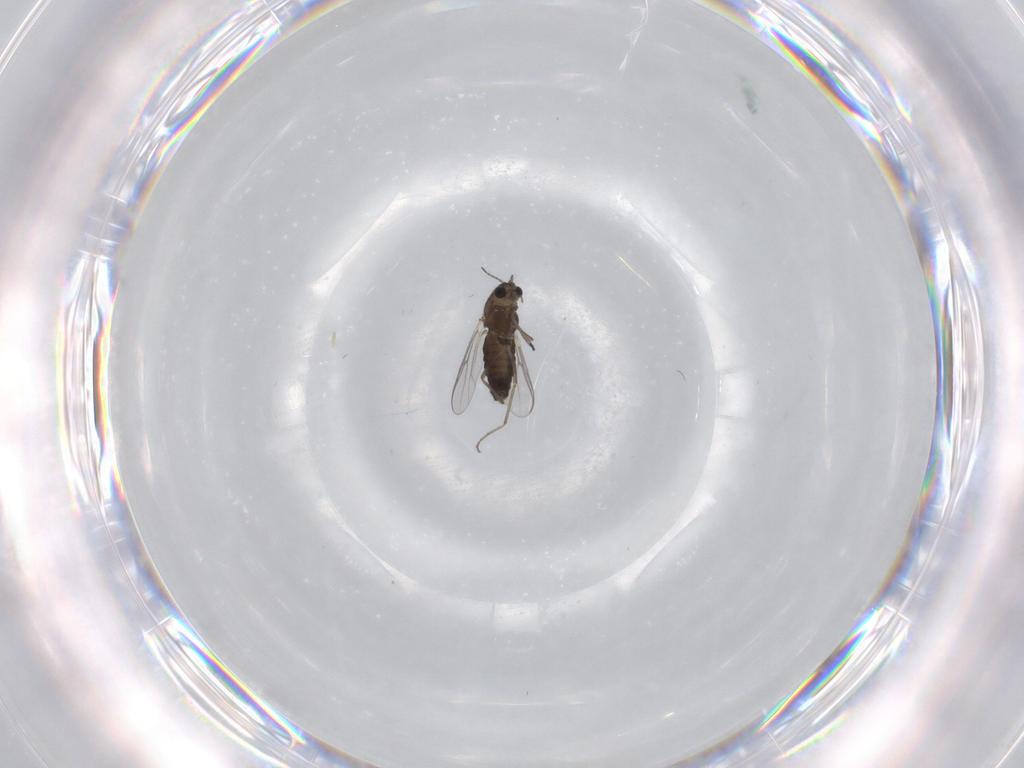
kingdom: Animalia
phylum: Arthropoda
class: Insecta
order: Diptera
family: Chironomidae
